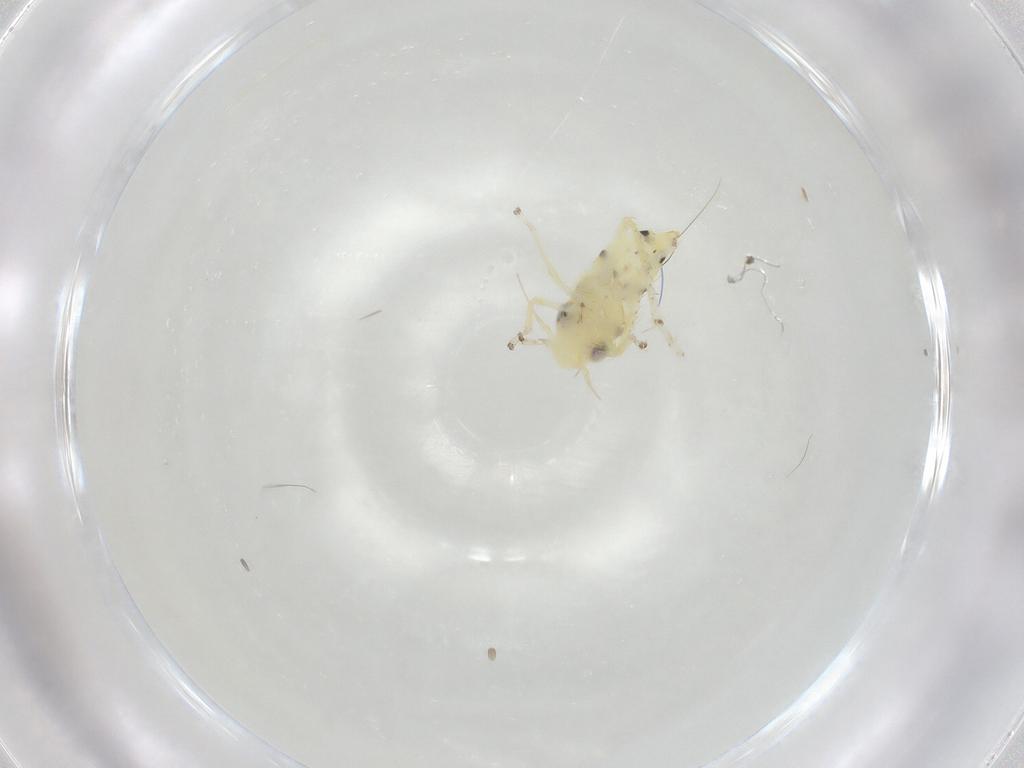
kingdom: Animalia
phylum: Arthropoda
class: Insecta
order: Hemiptera
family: Cicadellidae
